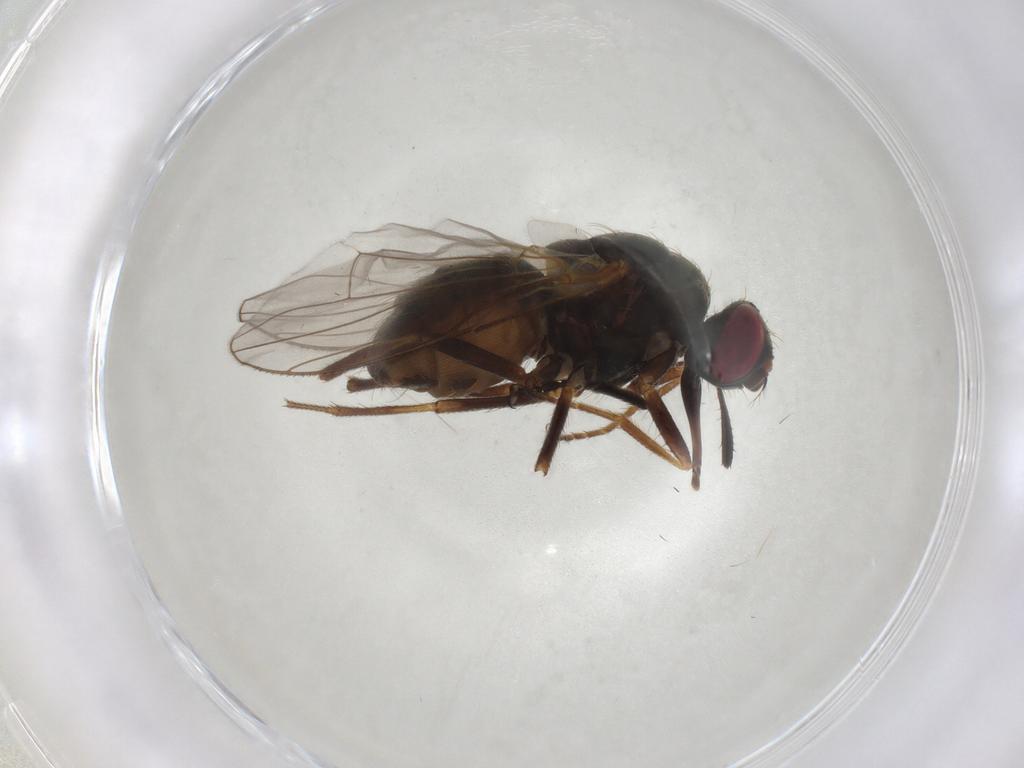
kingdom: Animalia
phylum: Arthropoda
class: Insecta
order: Diptera
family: Muscidae
